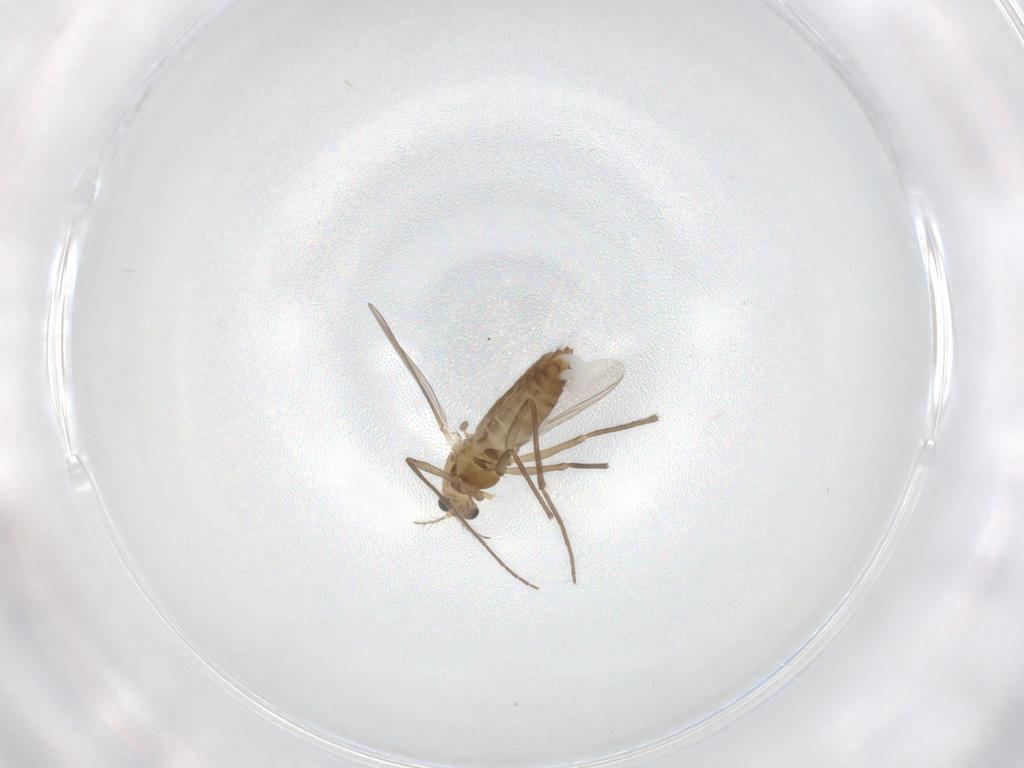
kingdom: Animalia
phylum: Arthropoda
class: Insecta
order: Diptera
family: Chironomidae
